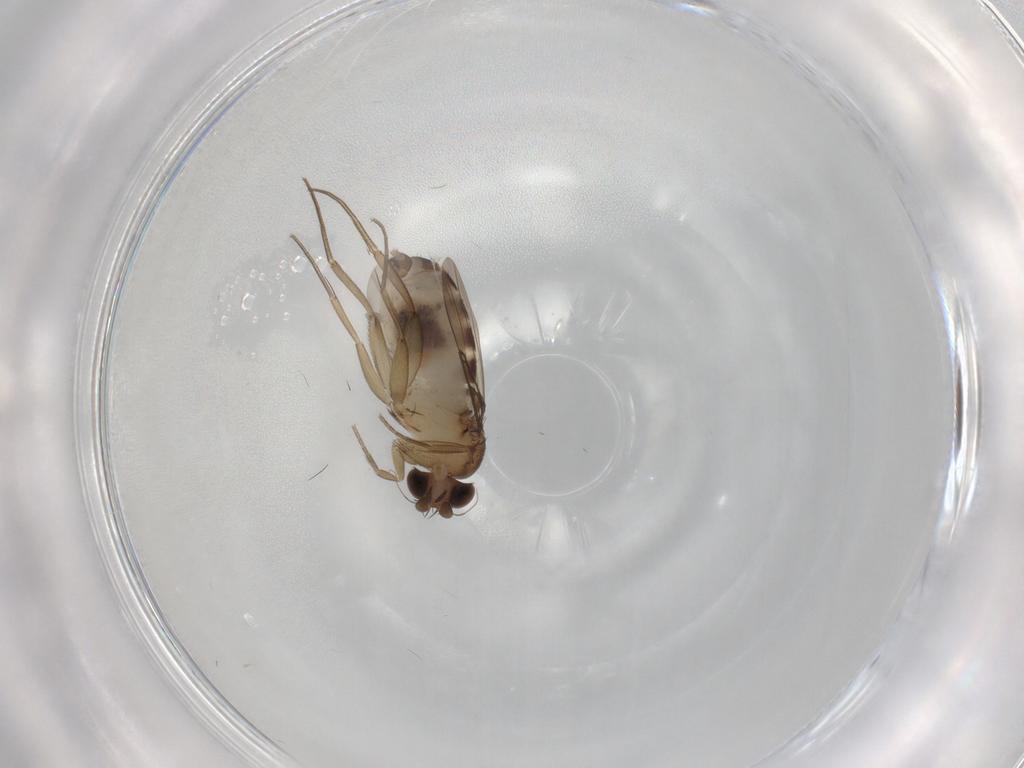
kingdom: Animalia
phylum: Arthropoda
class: Insecta
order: Diptera
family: Phoridae
